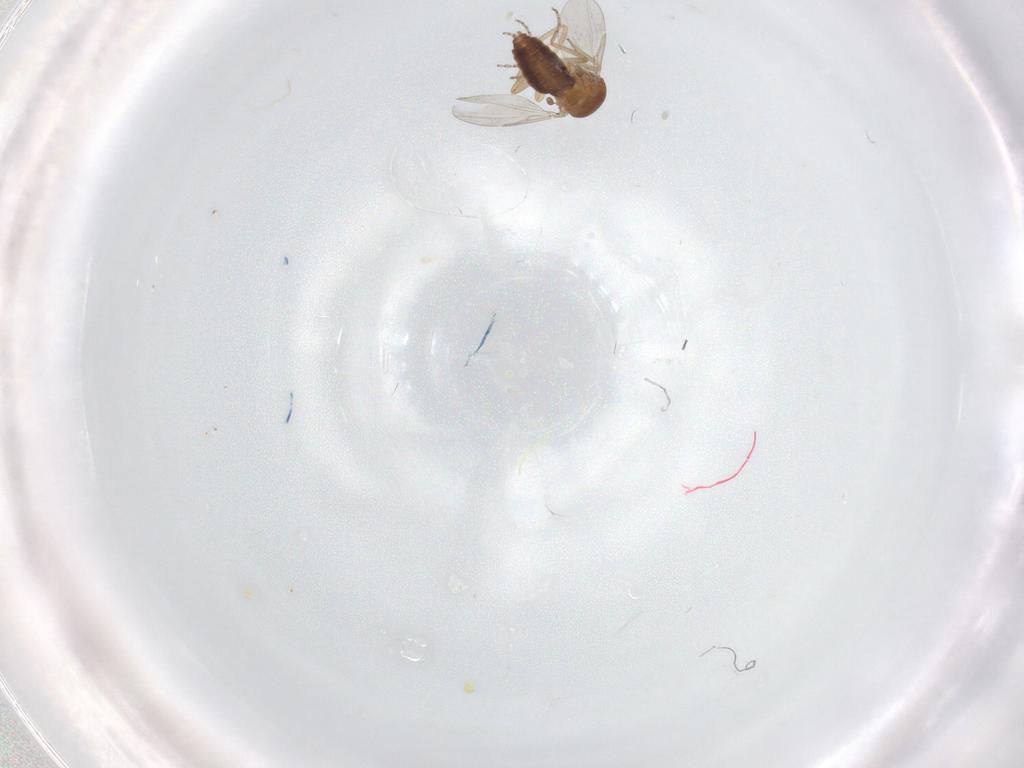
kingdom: Animalia
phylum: Arthropoda
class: Insecta
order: Diptera
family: Ceratopogonidae
